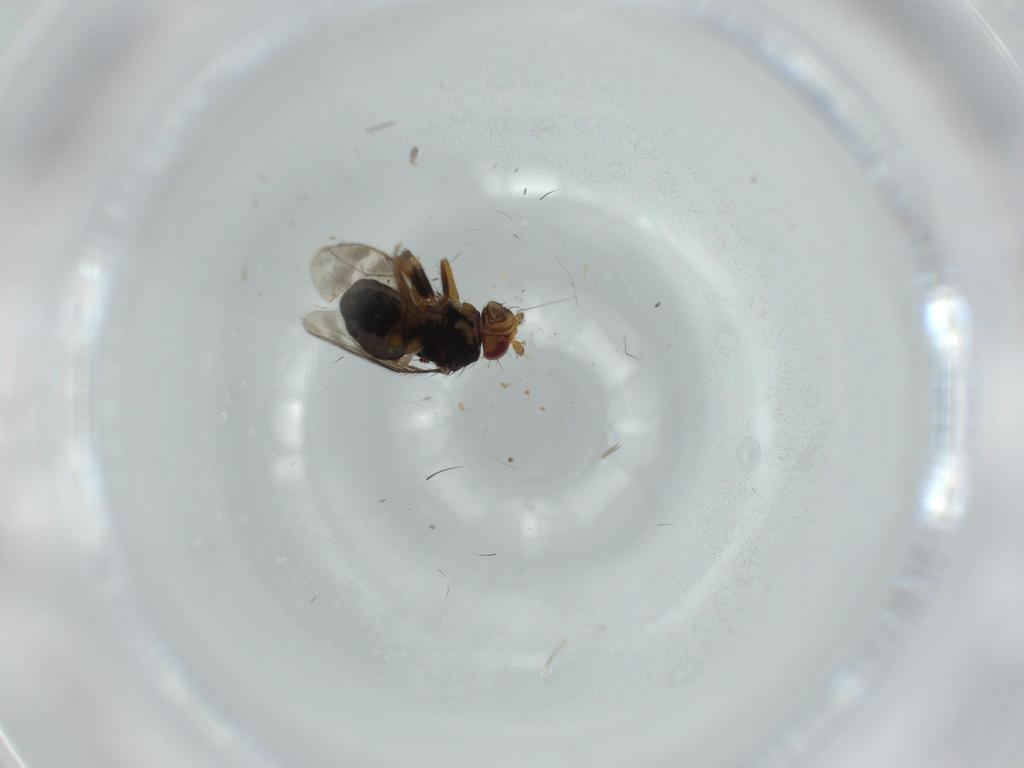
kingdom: Animalia
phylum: Arthropoda
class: Insecta
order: Diptera
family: Sphaeroceridae
